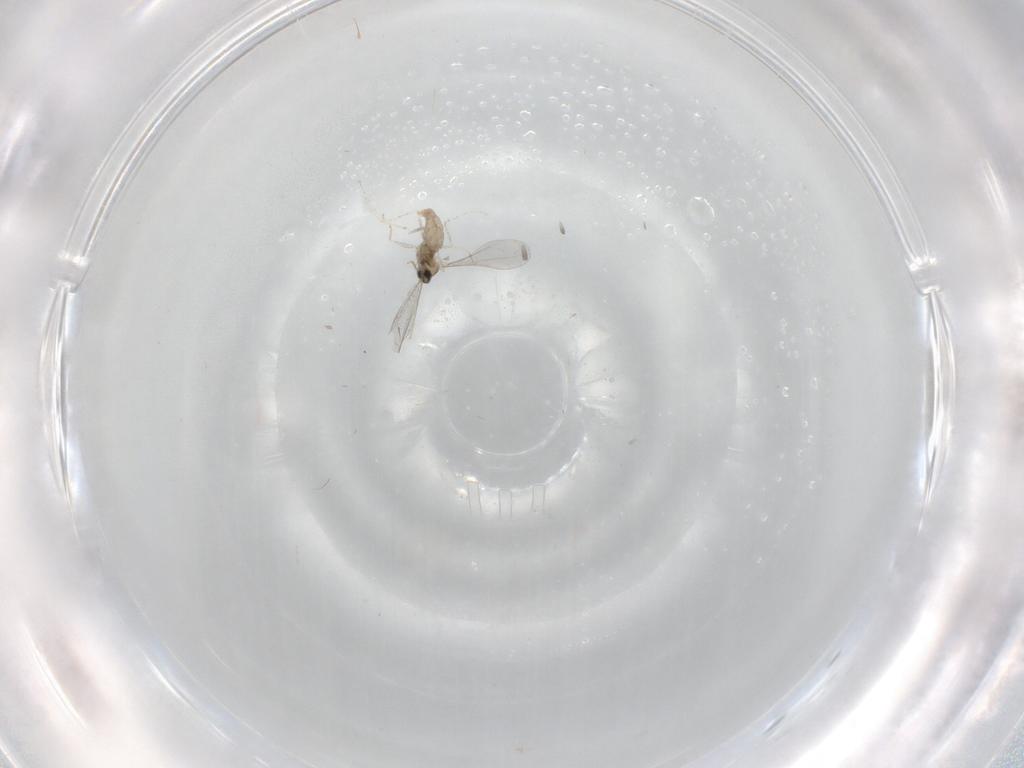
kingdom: Animalia
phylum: Arthropoda
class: Insecta
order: Diptera
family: Cecidomyiidae
